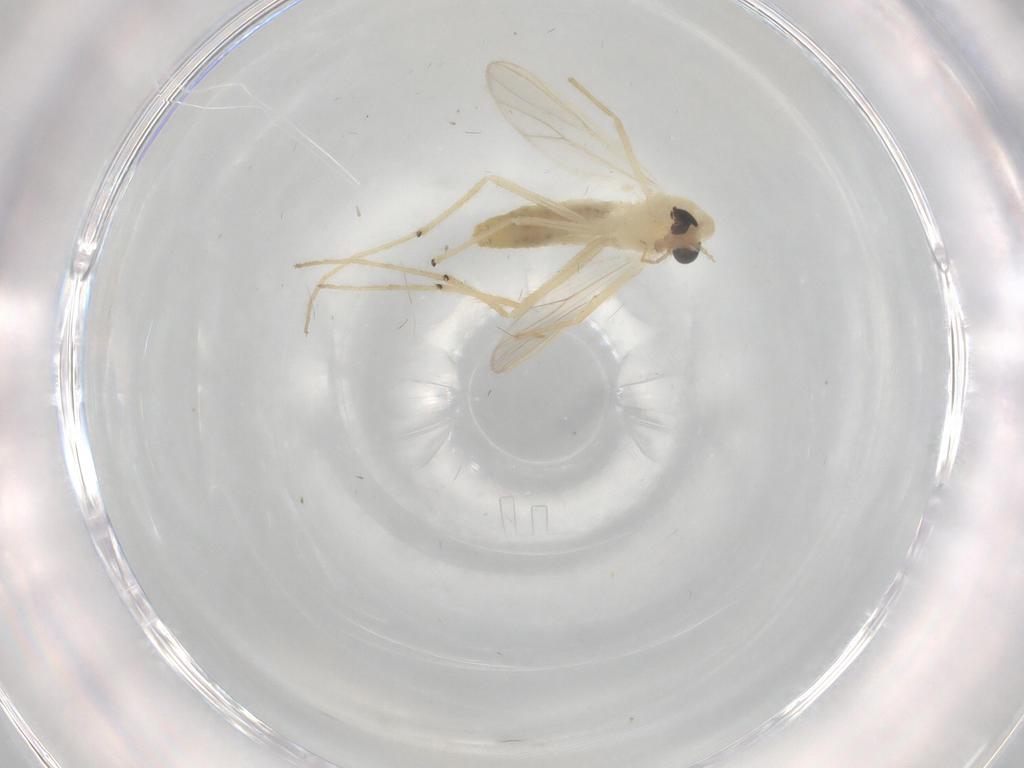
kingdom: Animalia
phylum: Arthropoda
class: Insecta
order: Diptera
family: Chironomidae
